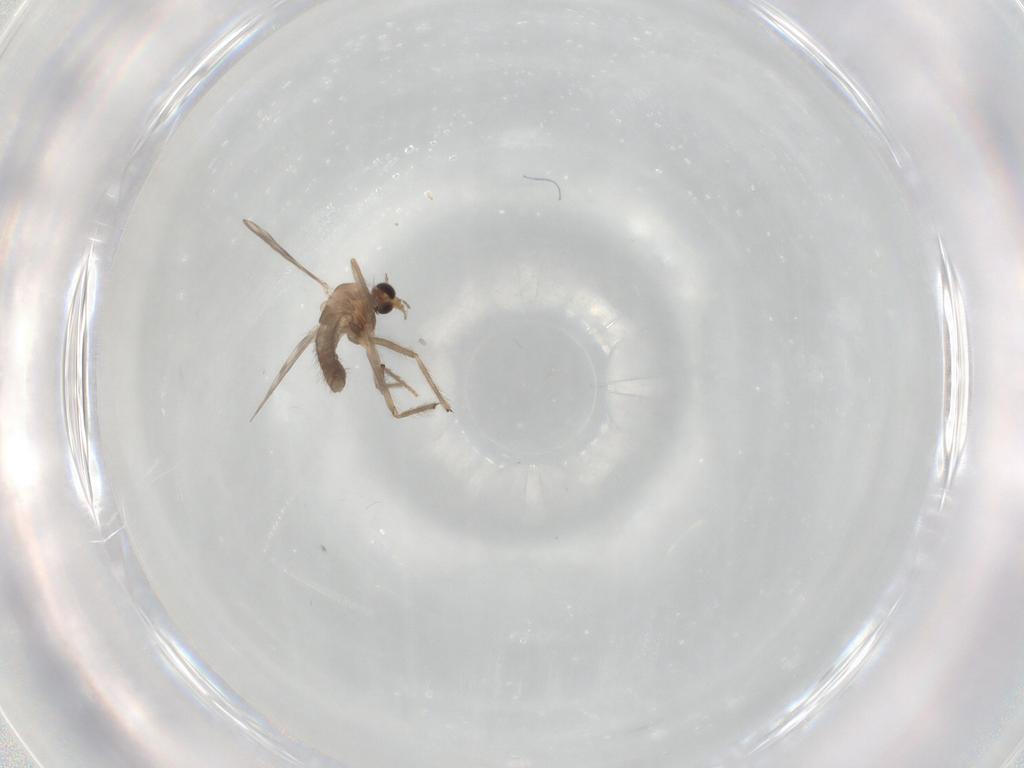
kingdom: Animalia
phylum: Arthropoda
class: Insecta
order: Diptera
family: Chironomidae
